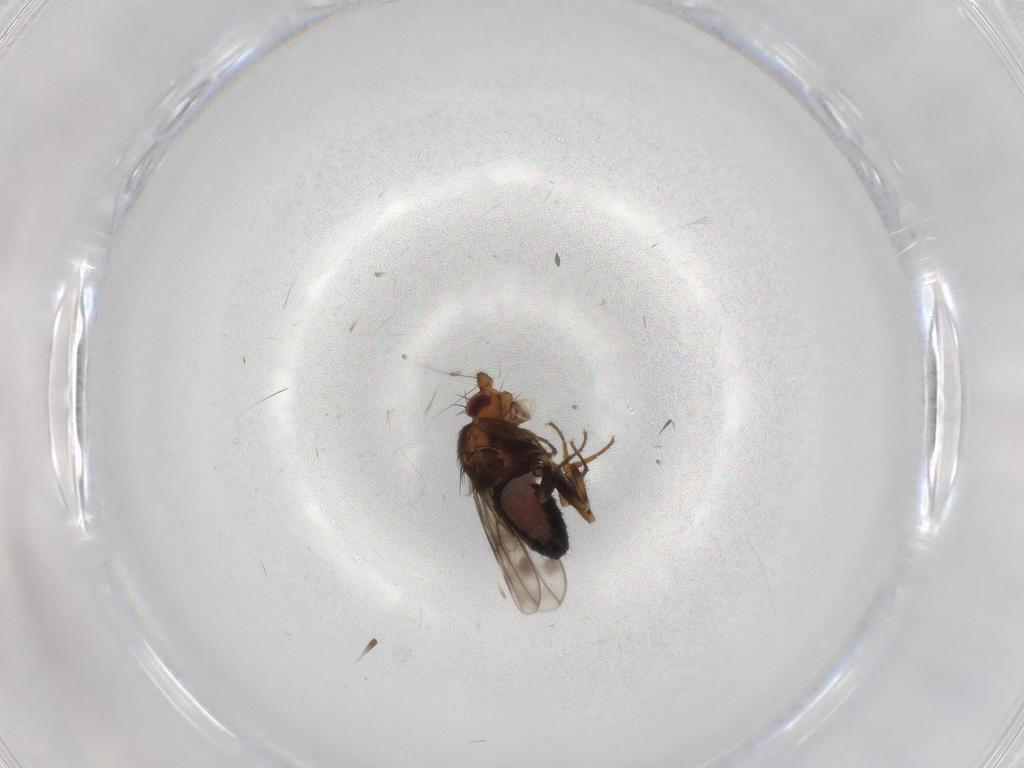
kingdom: Animalia
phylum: Arthropoda
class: Insecta
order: Diptera
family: Sphaeroceridae
